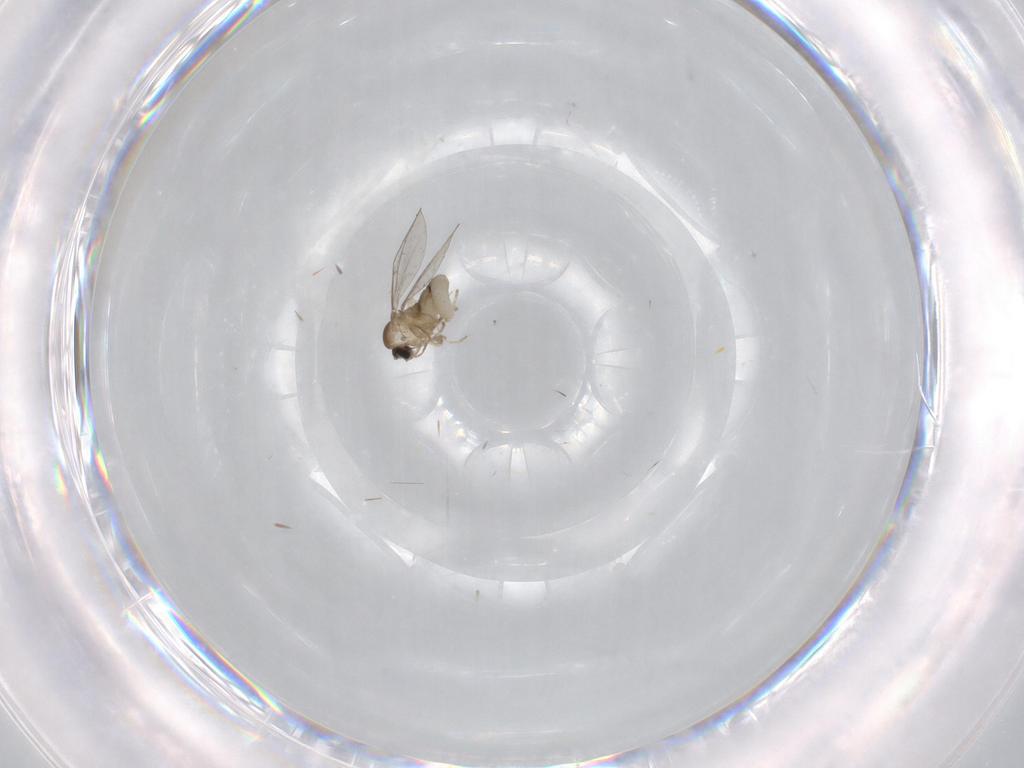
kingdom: Animalia
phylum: Arthropoda
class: Insecta
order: Diptera
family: Cecidomyiidae
